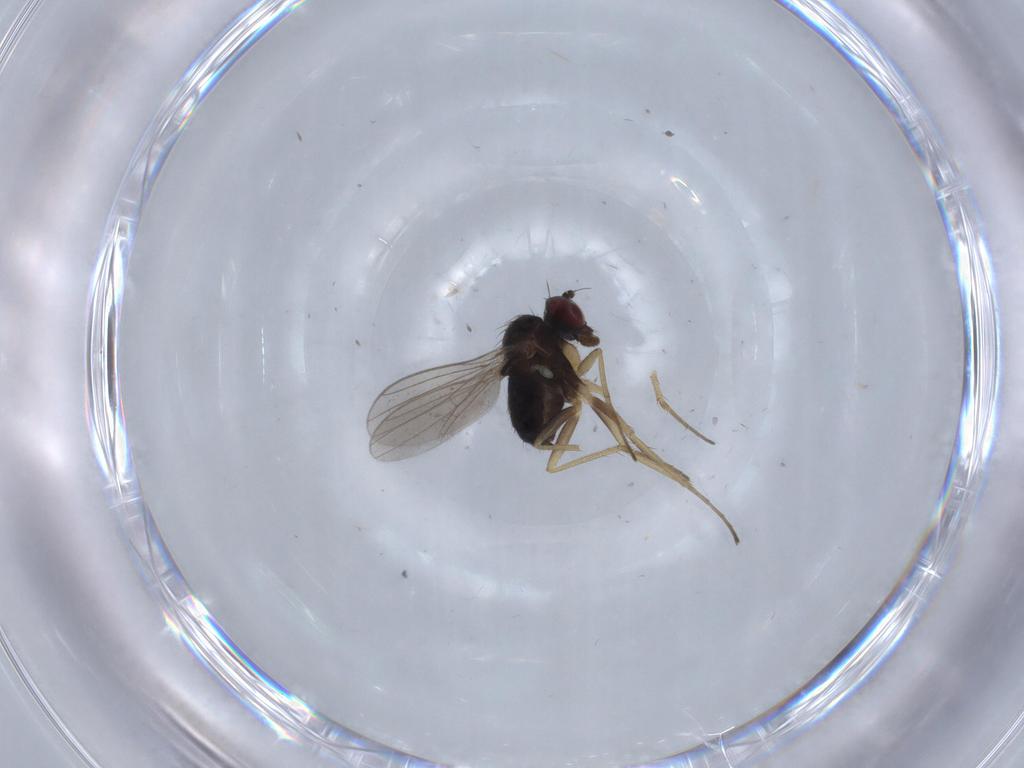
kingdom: Animalia
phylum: Arthropoda
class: Insecta
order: Diptera
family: Dolichopodidae
